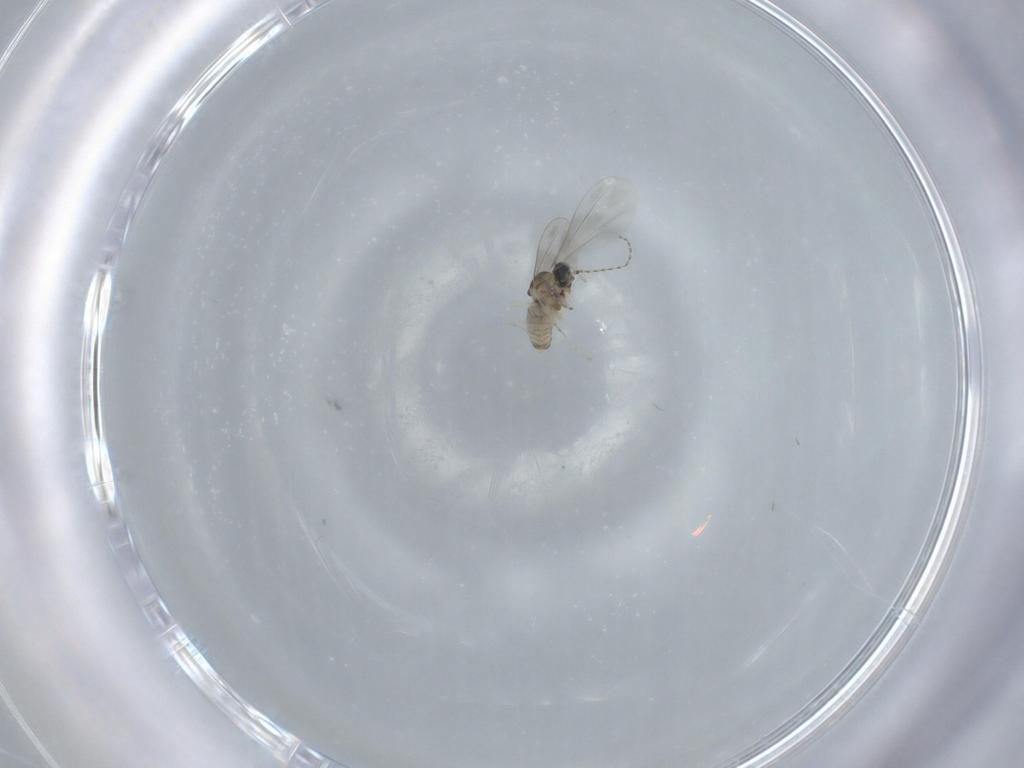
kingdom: Animalia
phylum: Arthropoda
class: Insecta
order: Diptera
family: Cecidomyiidae
